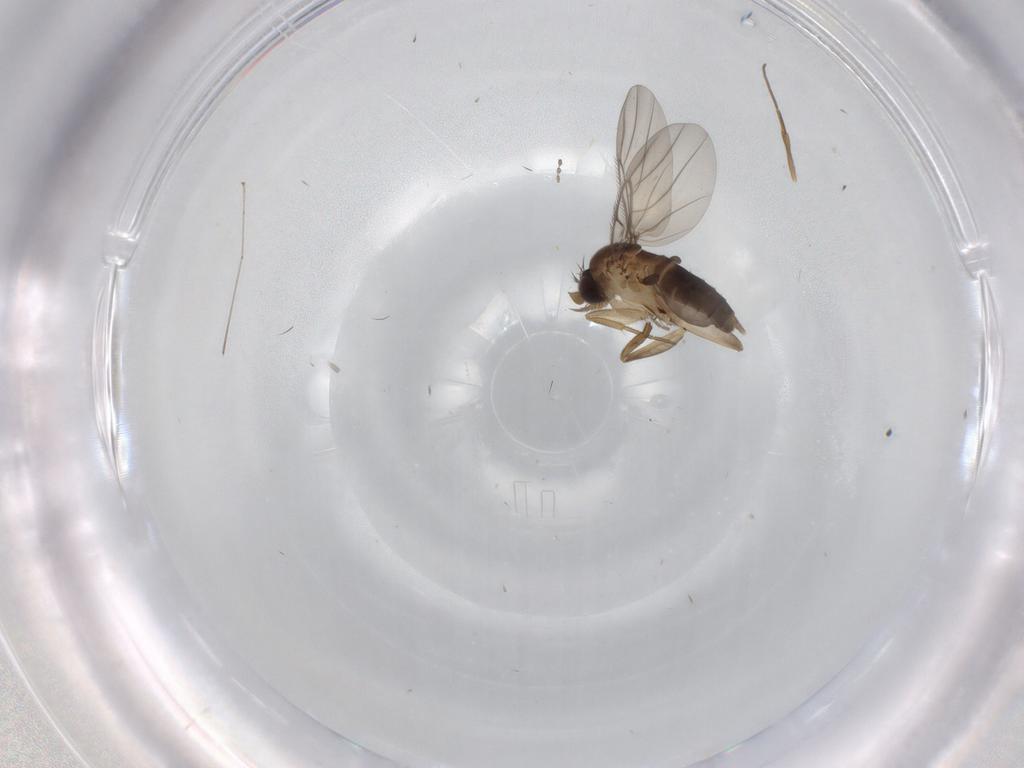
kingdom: Animalia
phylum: Arthropoda
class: Insecta
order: Diptera
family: Phoridae
